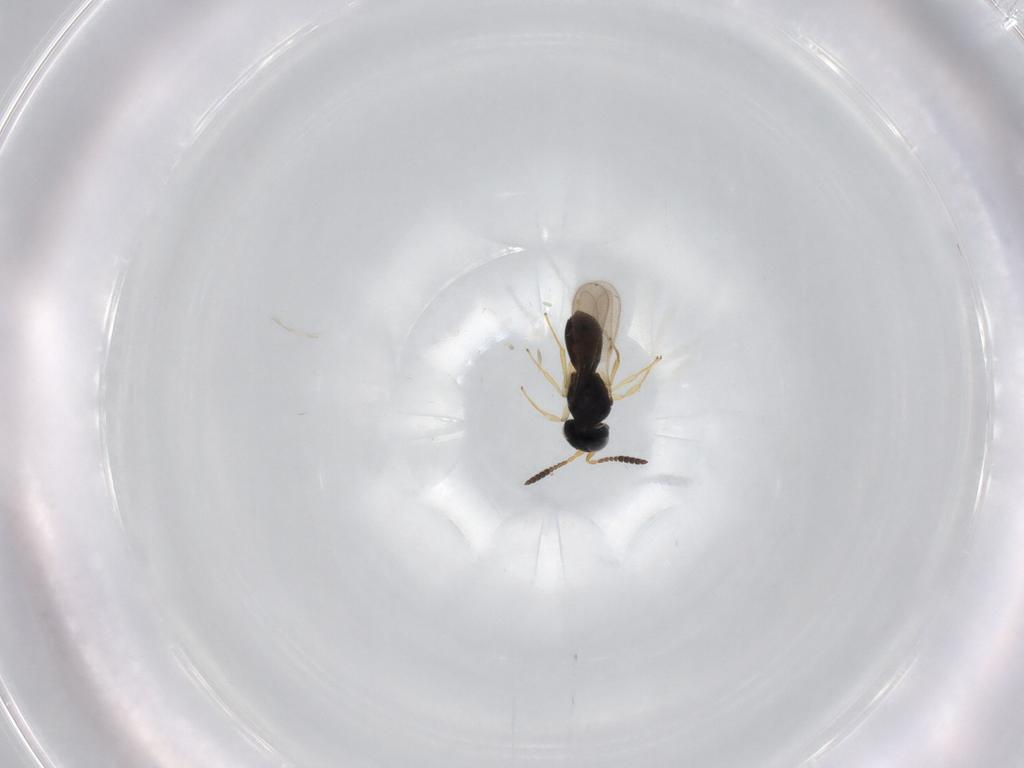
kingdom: Animalia
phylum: Arthropoda
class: Insecta
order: Hymenoptera
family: Scelionidae
